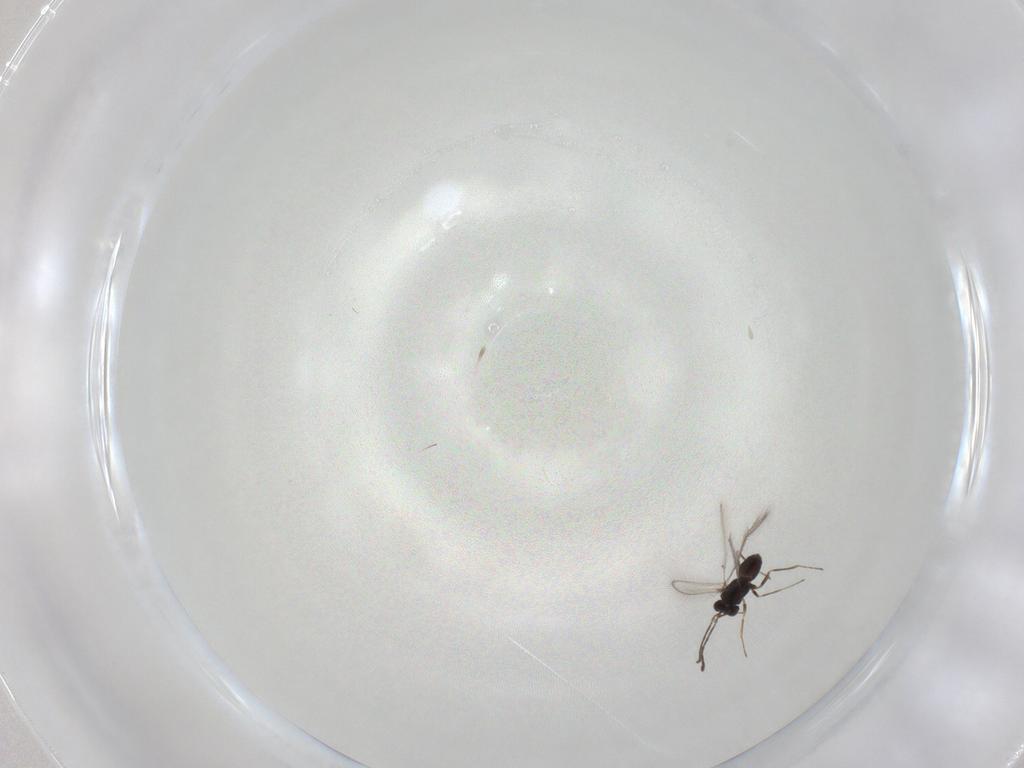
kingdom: Animalia
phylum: Arthropoda
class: Insecta
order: Hymenoptera
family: Mymaridae
